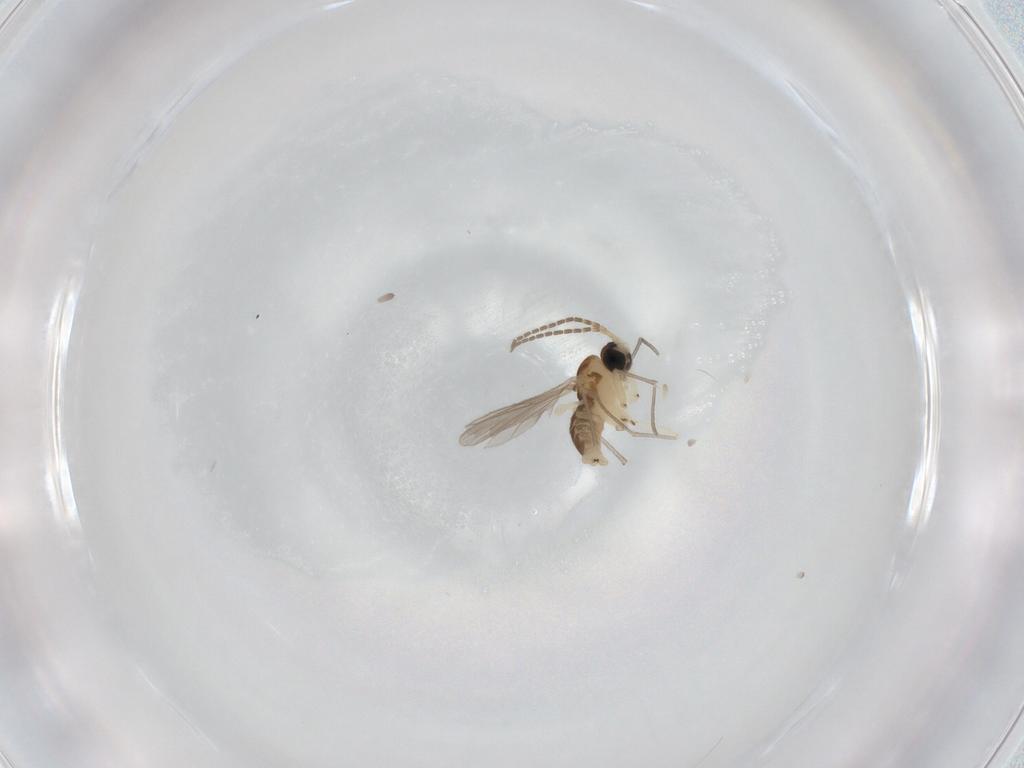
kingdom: Animalia
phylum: Arthropoda
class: Insecta
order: Diptera
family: Sciaridae
